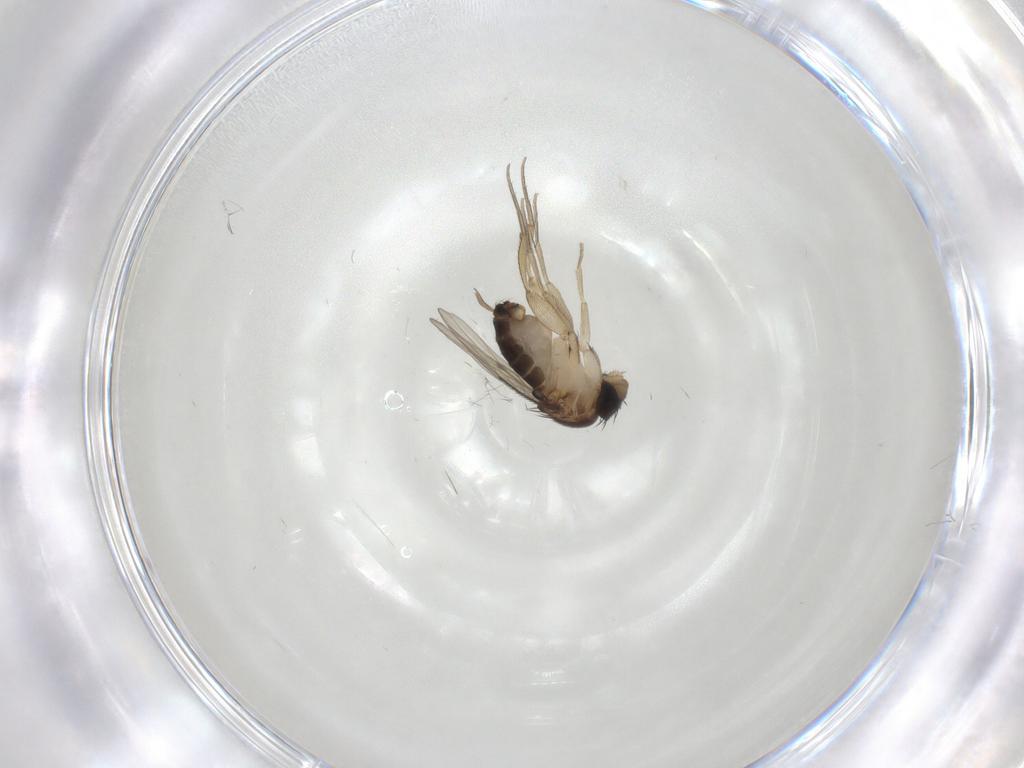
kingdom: Animalia
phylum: Arthropoda
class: Insecta
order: Diptera
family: Phoridae
